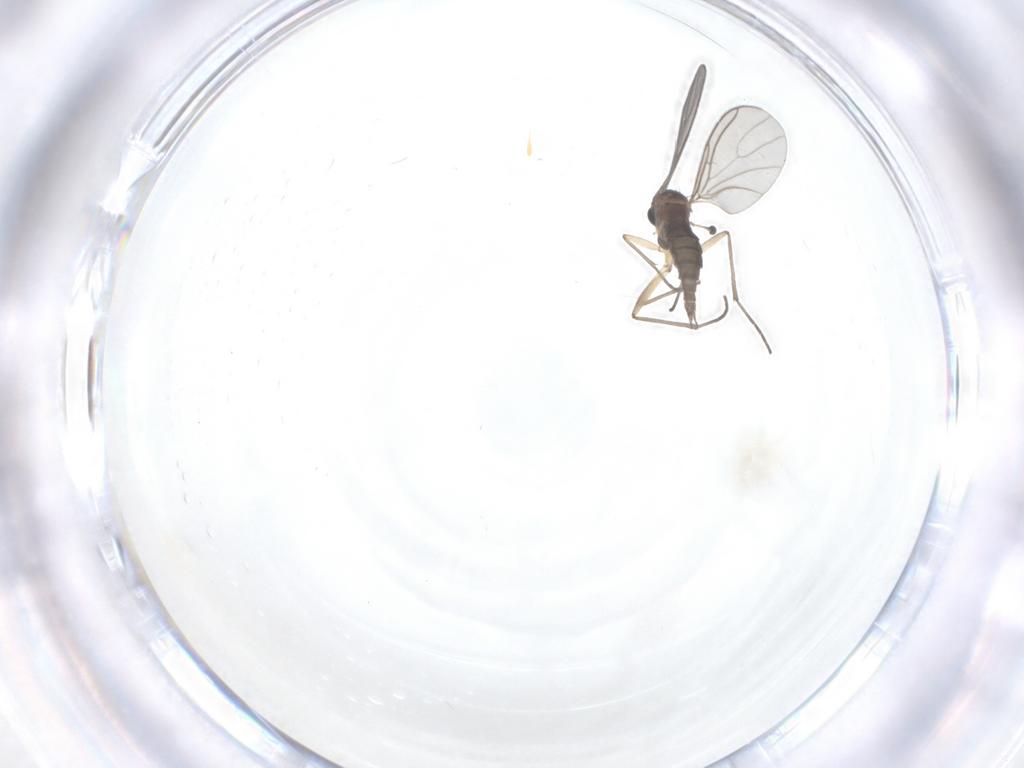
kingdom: Animalia
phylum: Arthropoda
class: Insecta
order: Diptera
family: Sciaridae
